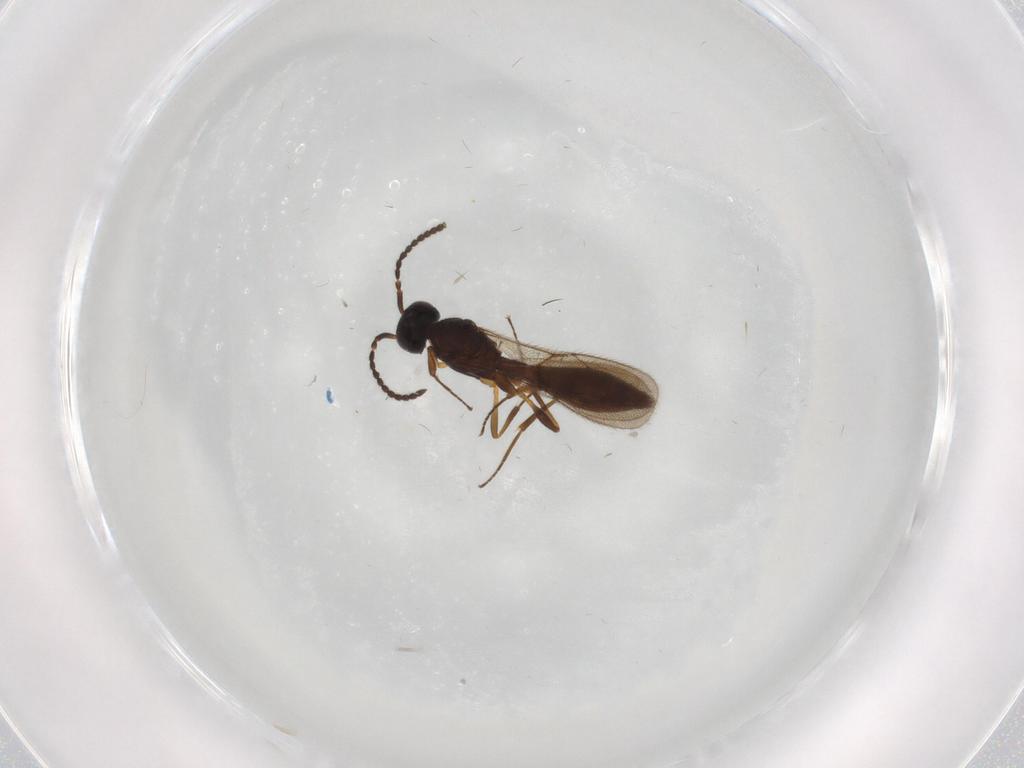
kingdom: Animalia
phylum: Arthropoda
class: Insecta
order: Hymenoptera
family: Scelionidae
